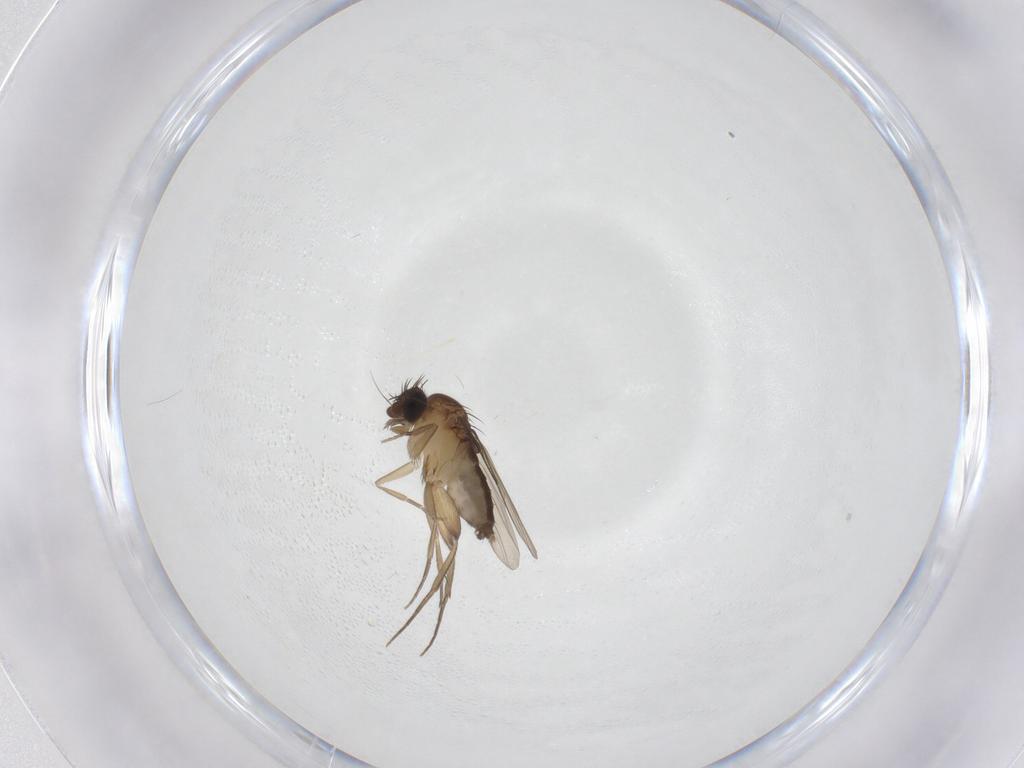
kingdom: Animalia
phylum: Arthropoda
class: Insecta
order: Diptera
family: Phoridae
